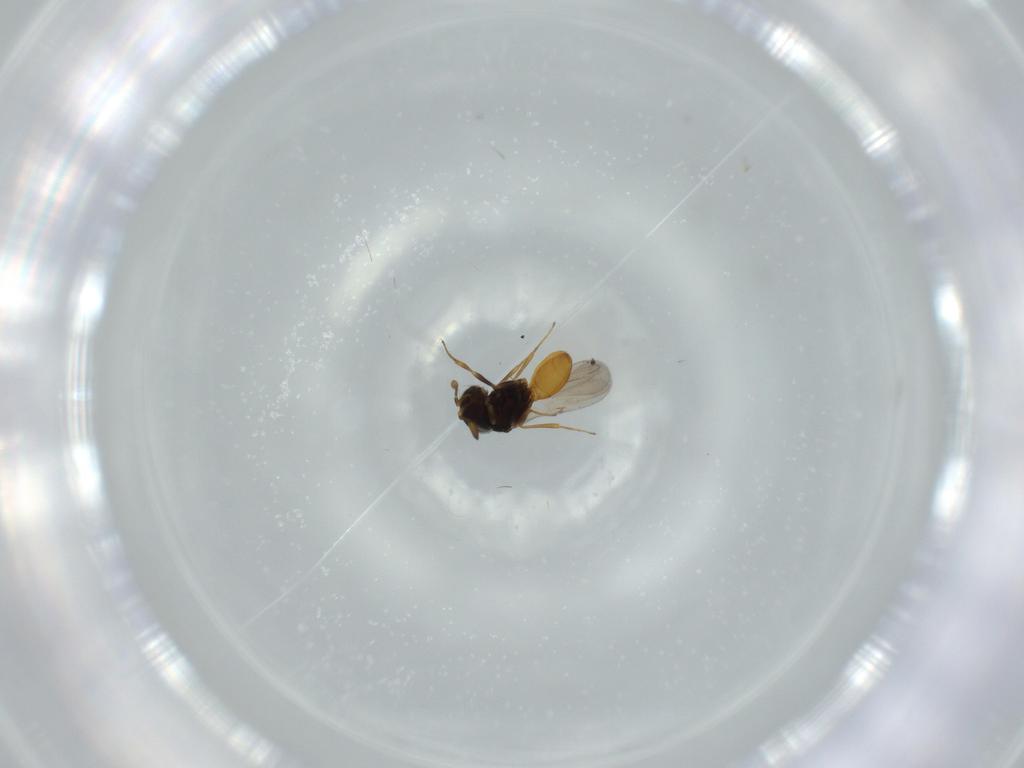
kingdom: Animalia
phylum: Arthropoda
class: Insecta
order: Hymenoptera
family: Scelionidae
